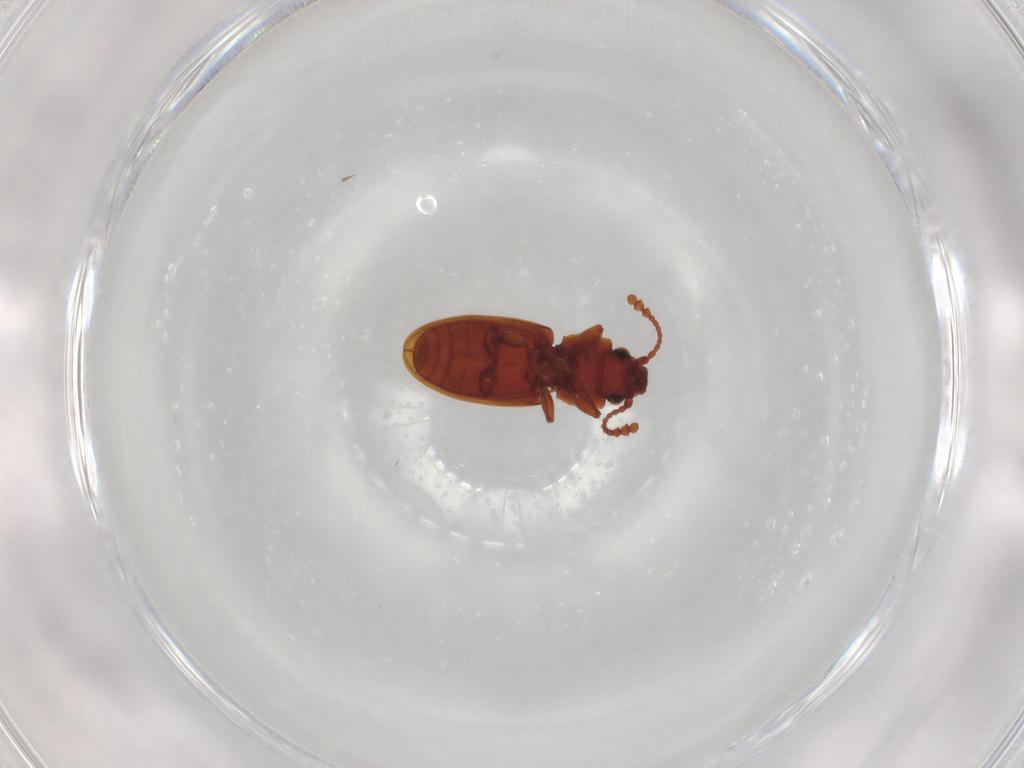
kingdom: Animalia
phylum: Arthropoda
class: Insecta
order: Coleoptera
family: Silvanidae
